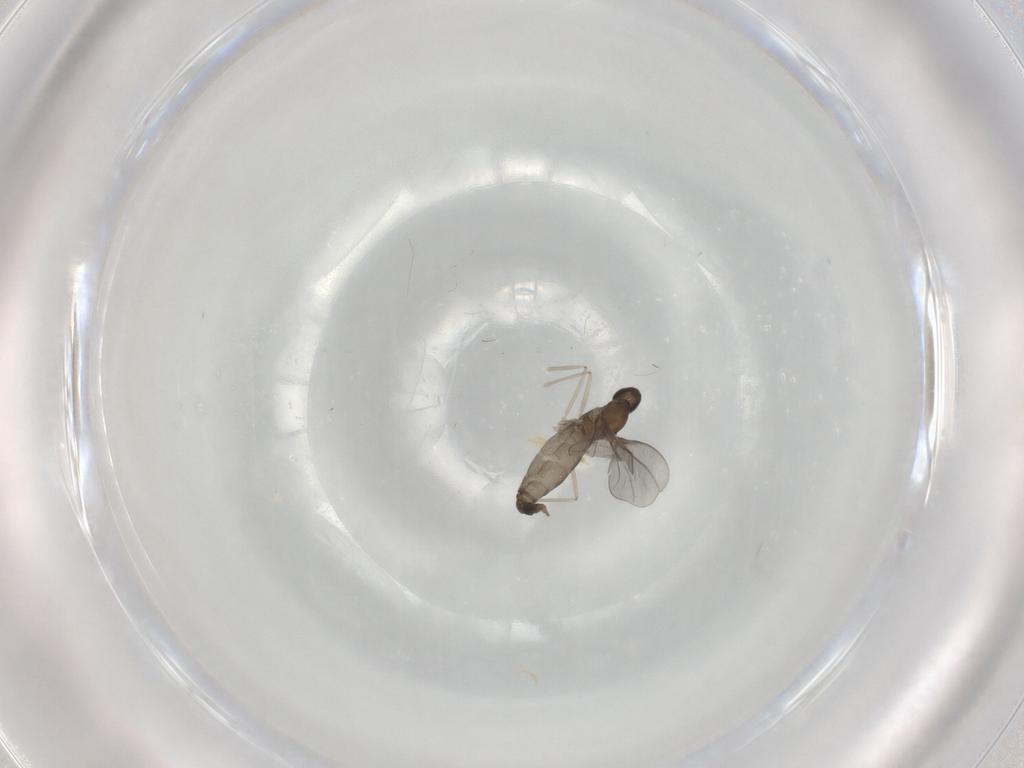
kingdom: Animalia
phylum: Arthropoda
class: Insecta
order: Diptera
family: Cecidomyiidae
